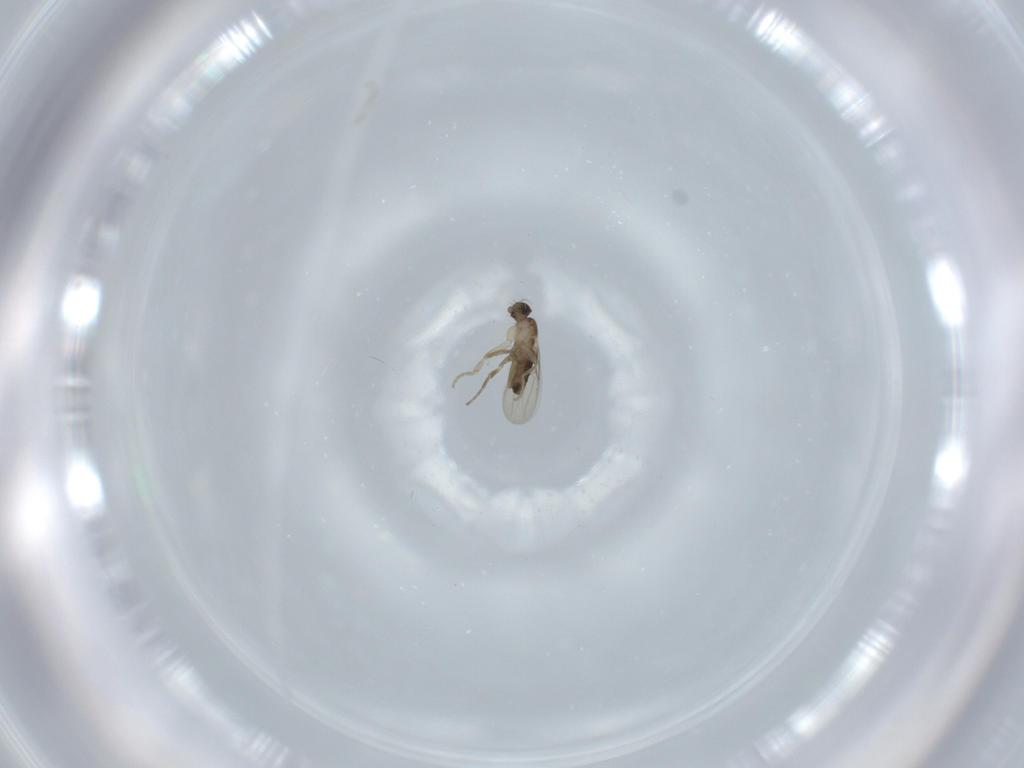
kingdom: Animalia
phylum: Arthropoda
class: Insecta
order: Diptera
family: Phoridae
